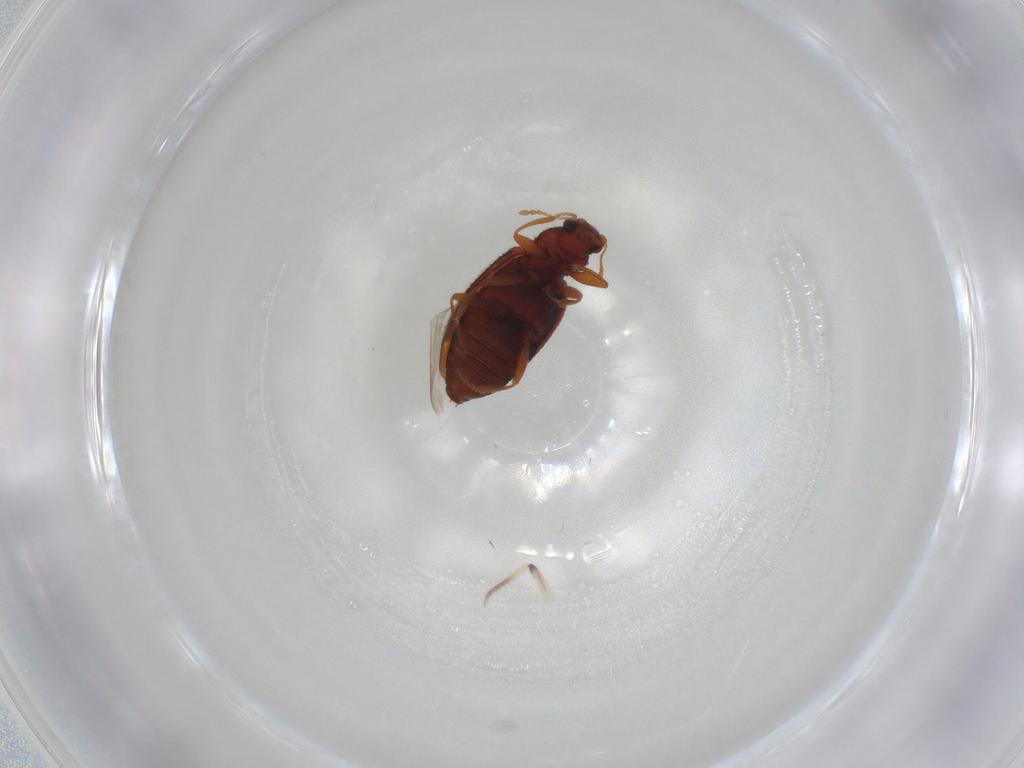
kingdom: Animalia
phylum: Arthropoda
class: Insecta
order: Coleoptera
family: Latridiidae
